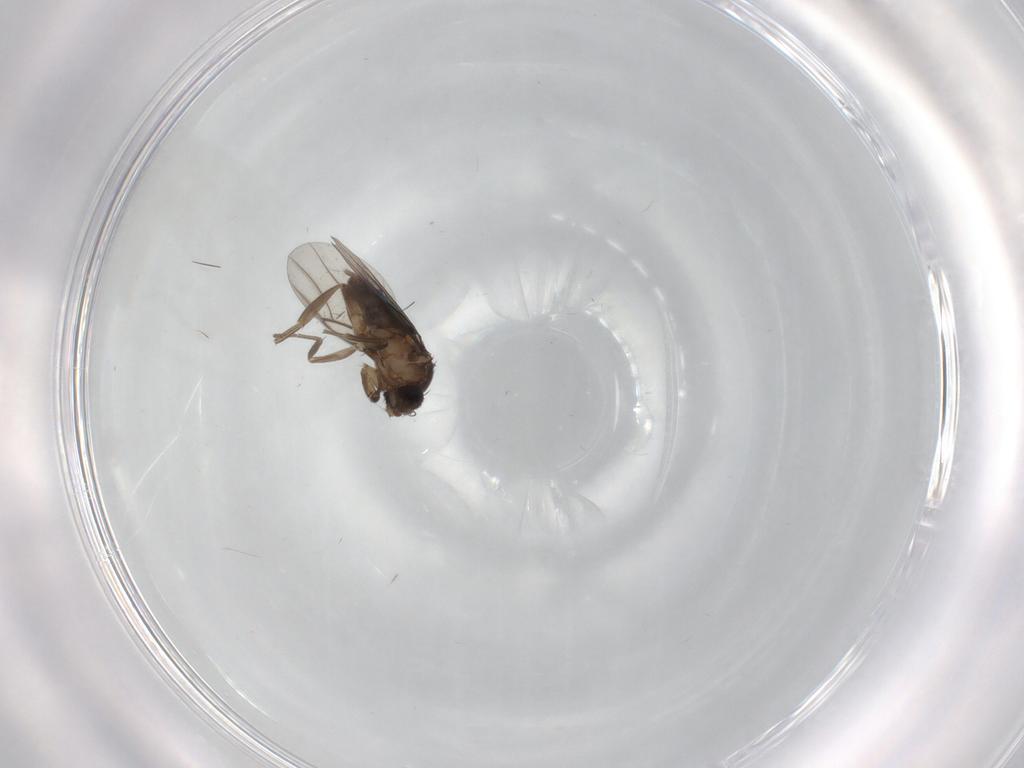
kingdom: Animalia
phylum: Arthropoda
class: Insecta
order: Diptera
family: Phoridae
